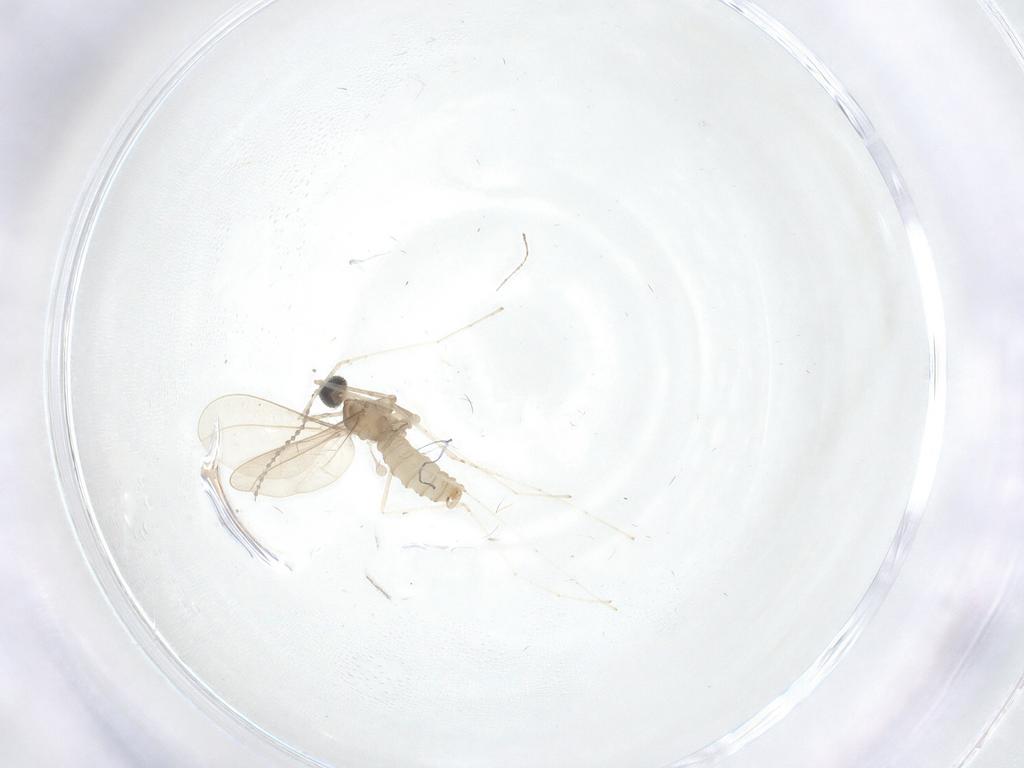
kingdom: Animalia
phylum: Arthropoda
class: Insecta
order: Diptera
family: Cecidomyiidae
